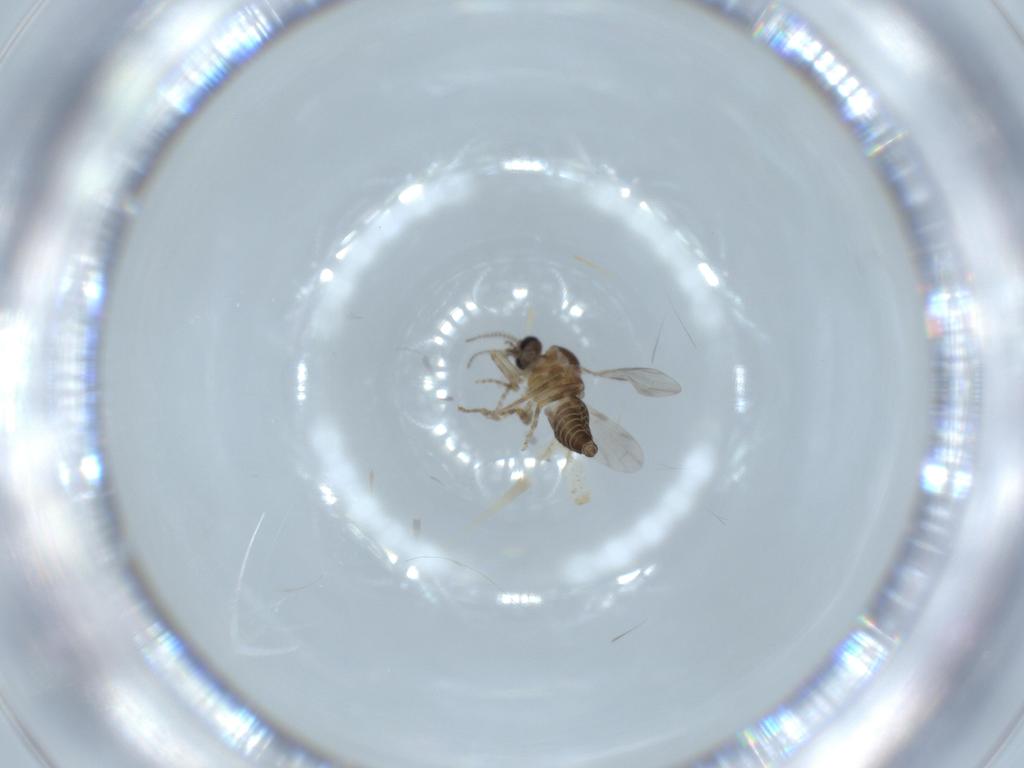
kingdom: Animalia
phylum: Arthropoda
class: Insecta
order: Diptera
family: Ceratopogonidae
